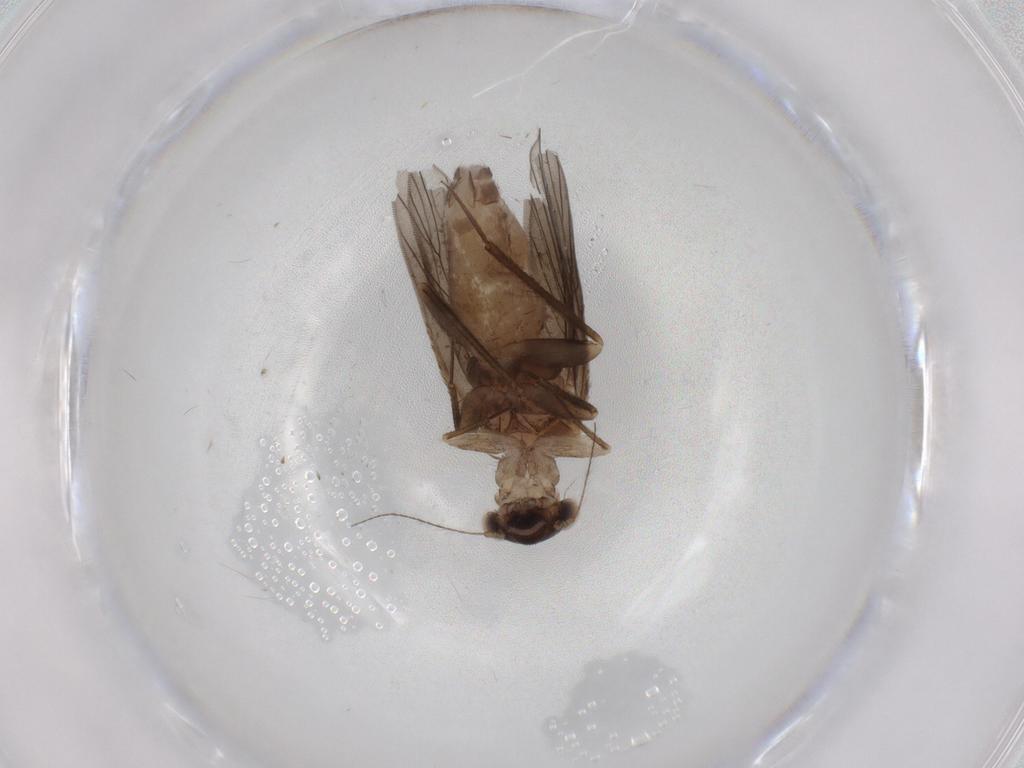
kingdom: Animalia
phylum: Arthropoda
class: Insecta
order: Psocodea
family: Lepidopsocidae
